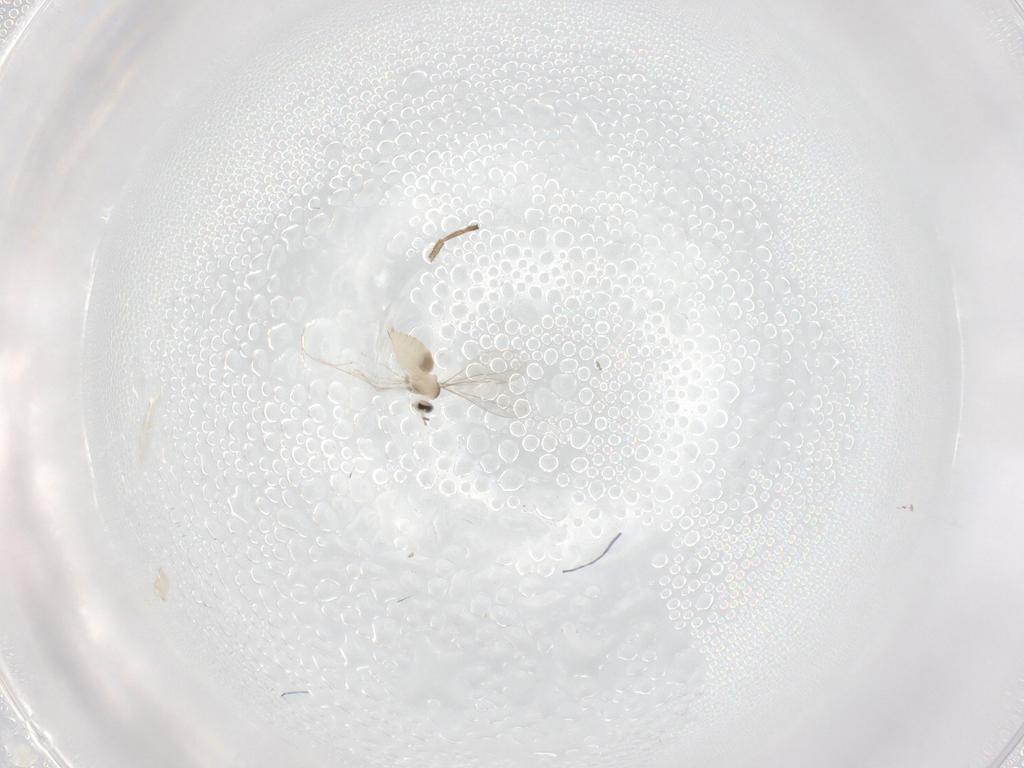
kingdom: Animalia
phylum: Arthropoda
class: Insecta
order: Diptera
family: Cecidomyiidae
